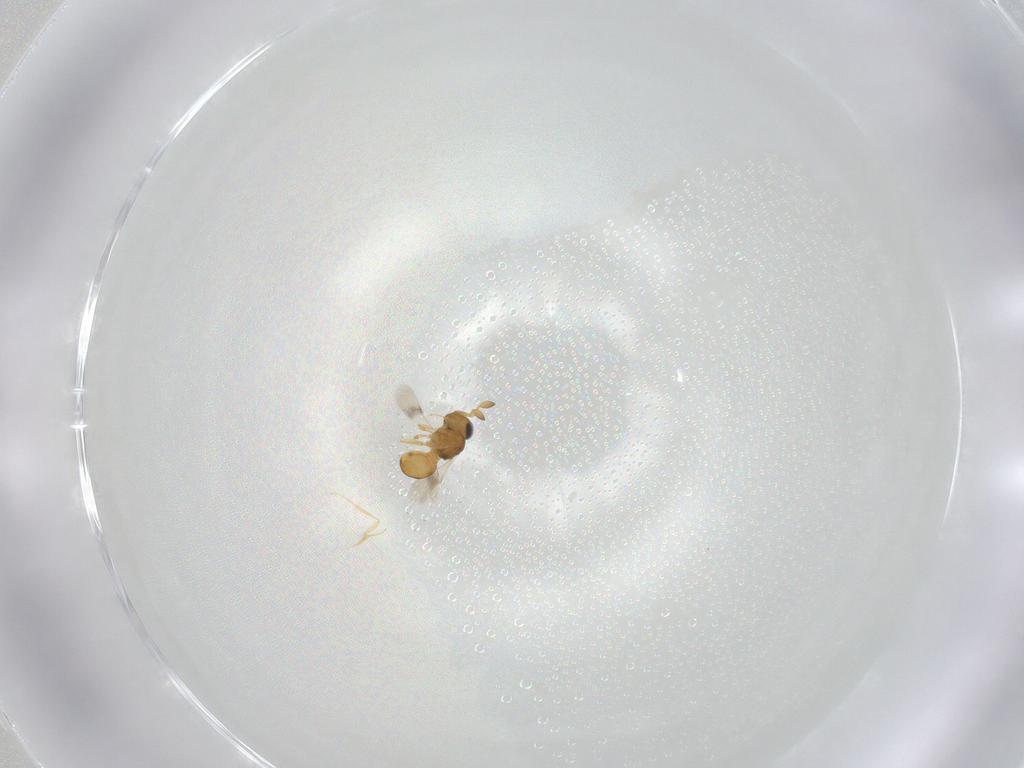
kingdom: Animalia
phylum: Arthropoda
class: Insecta
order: Hymenoptera
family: Scelionidae
